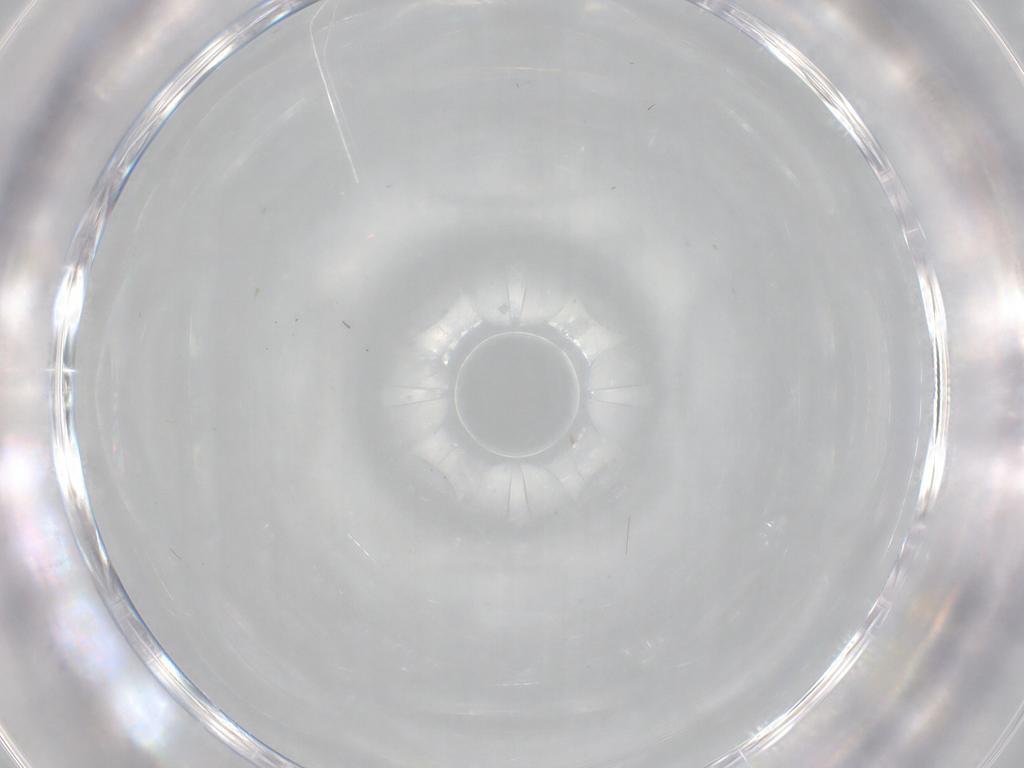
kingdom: Animalia
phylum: Arthropoda
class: Insecta
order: Hemiptera
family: Aleyrodidae
